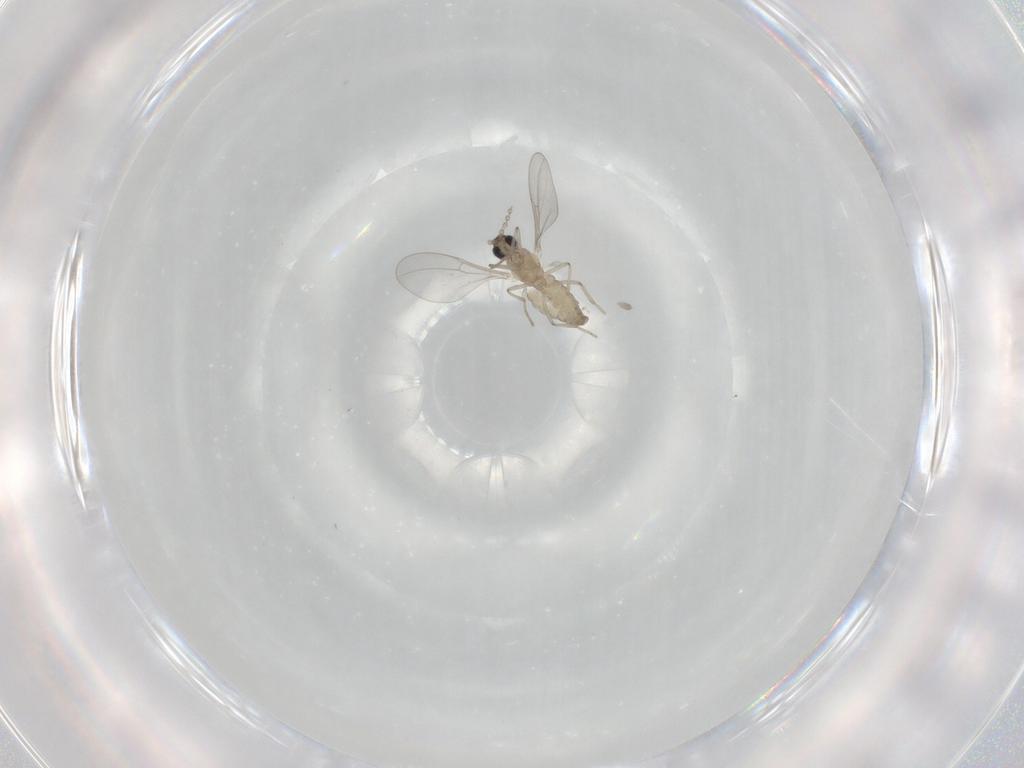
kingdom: Animalia
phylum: Arthropoda
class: Insecta
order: Diptera
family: Cecidomyiidae
